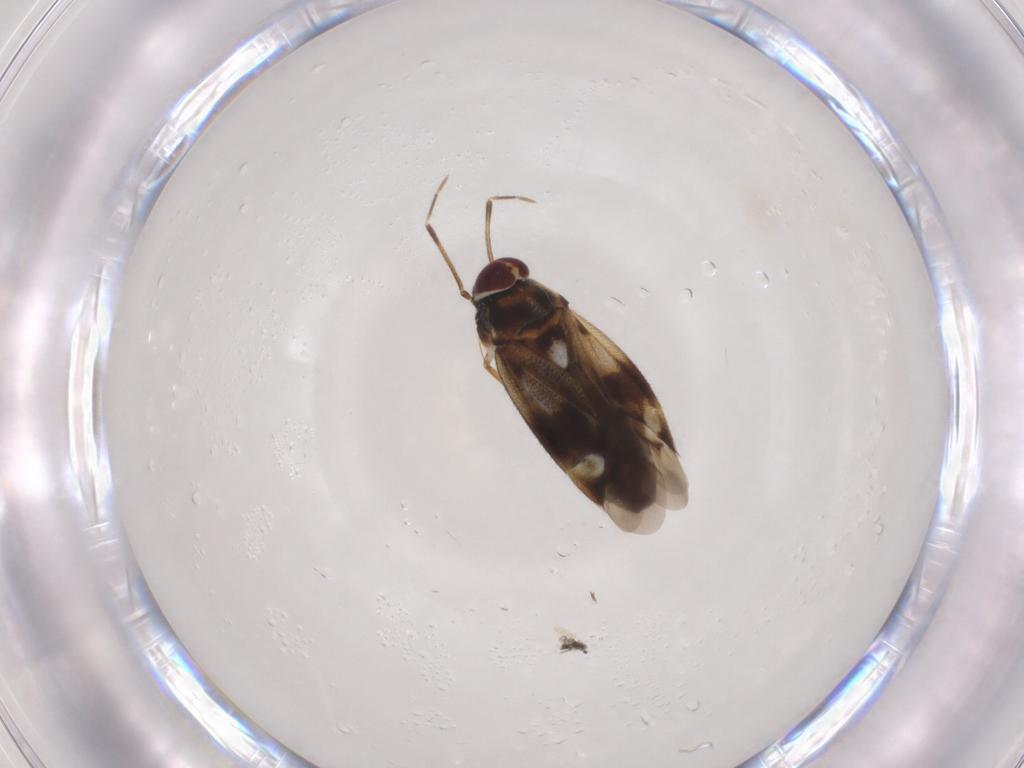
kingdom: Animalia
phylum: Arthropoda
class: Insecta
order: Hemiptera
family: Miridae
